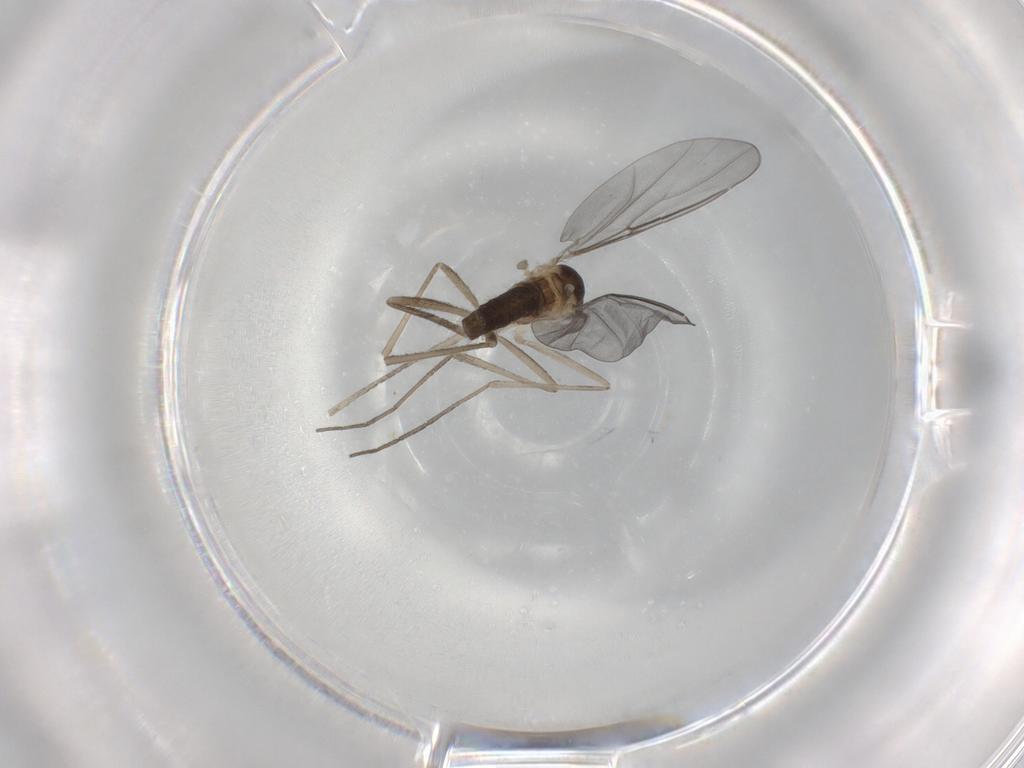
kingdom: Animalia
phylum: Arthropoda
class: Insecta
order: Diptera
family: Cecidomyiidae
